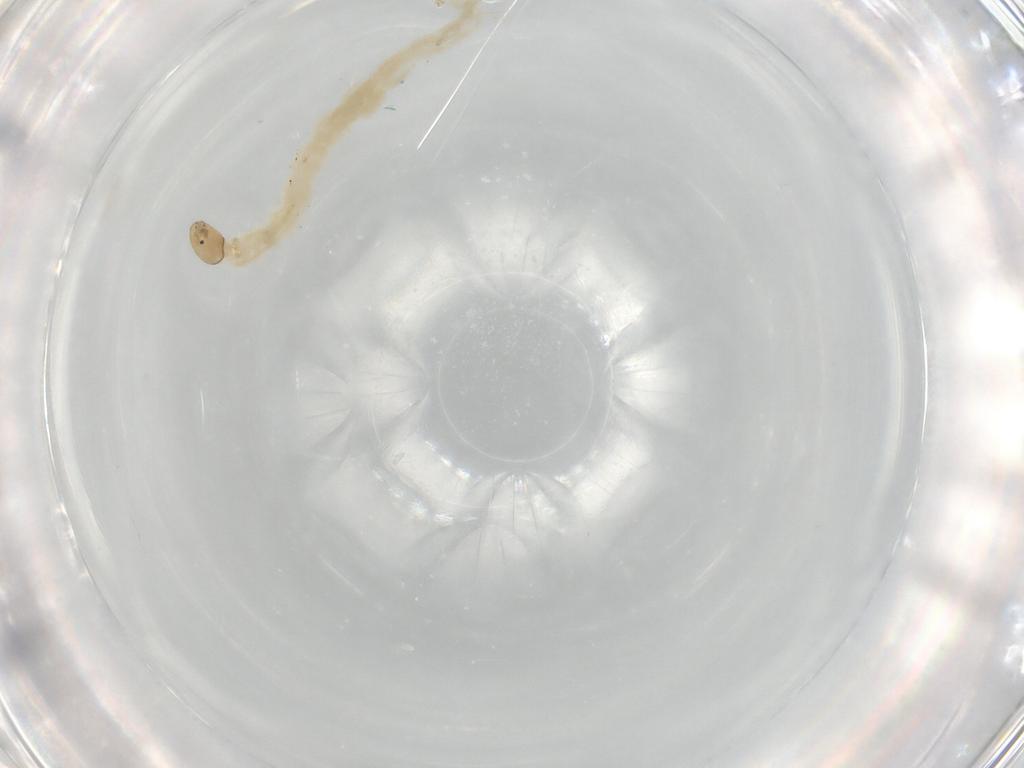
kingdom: Animalia
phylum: Arthropoda
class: Insecta
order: Diptera
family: Chironomidae
